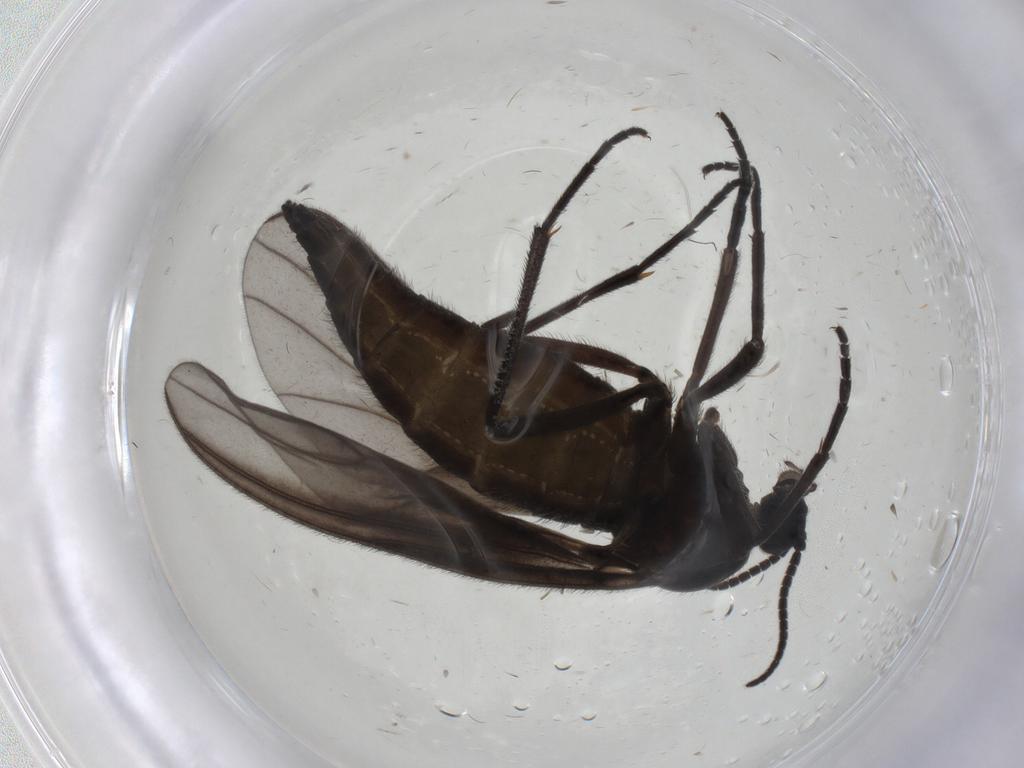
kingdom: Animalia
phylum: Arthropoda
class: Insecta
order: Diptera
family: Sciaridae
